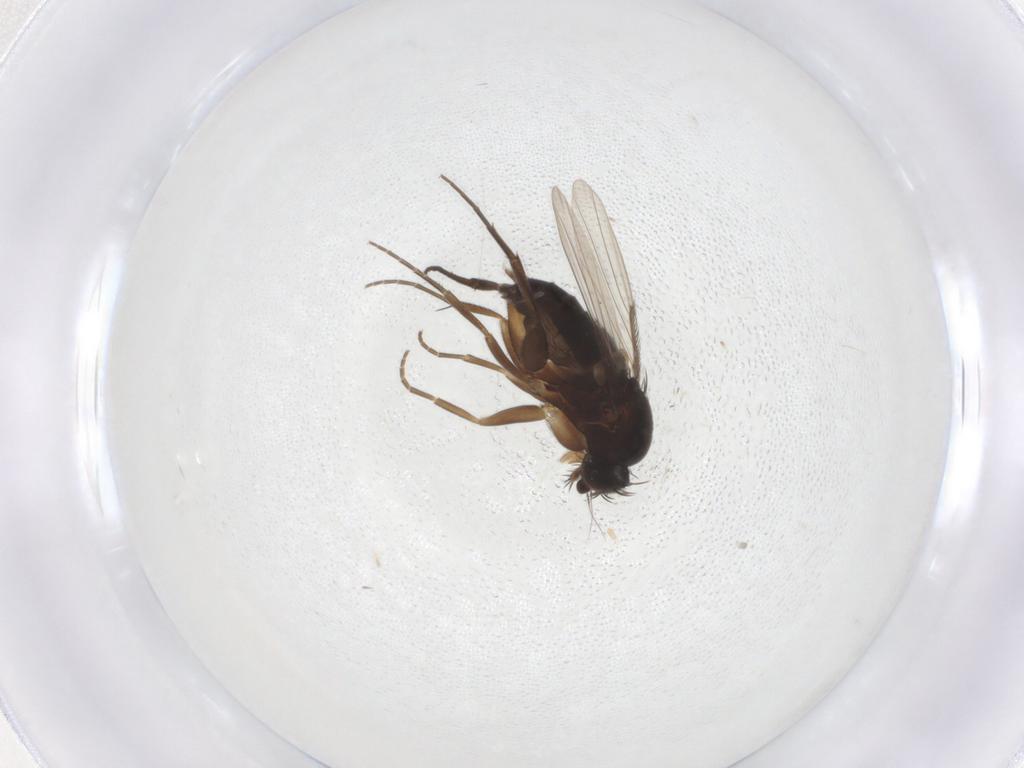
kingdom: Animalia
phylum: Arthropoda
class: Insecta
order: Diptera
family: Phoridae
